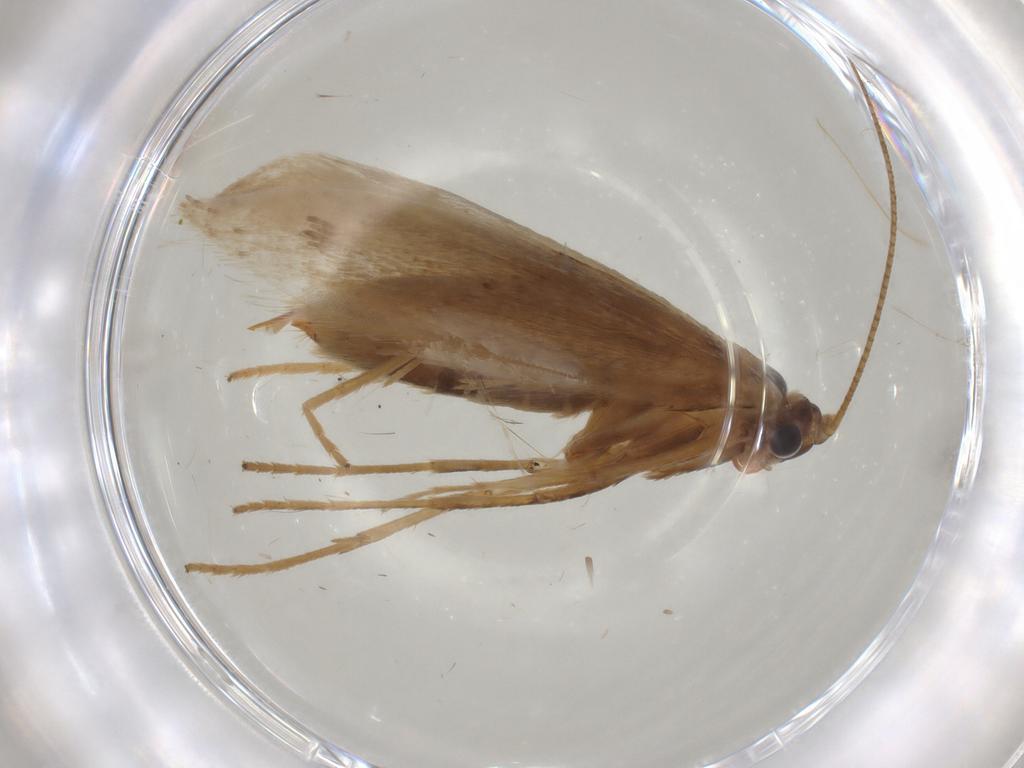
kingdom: Animalia
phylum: Arthropoda
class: Insecta
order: Lepidoptera
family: Adelidae
